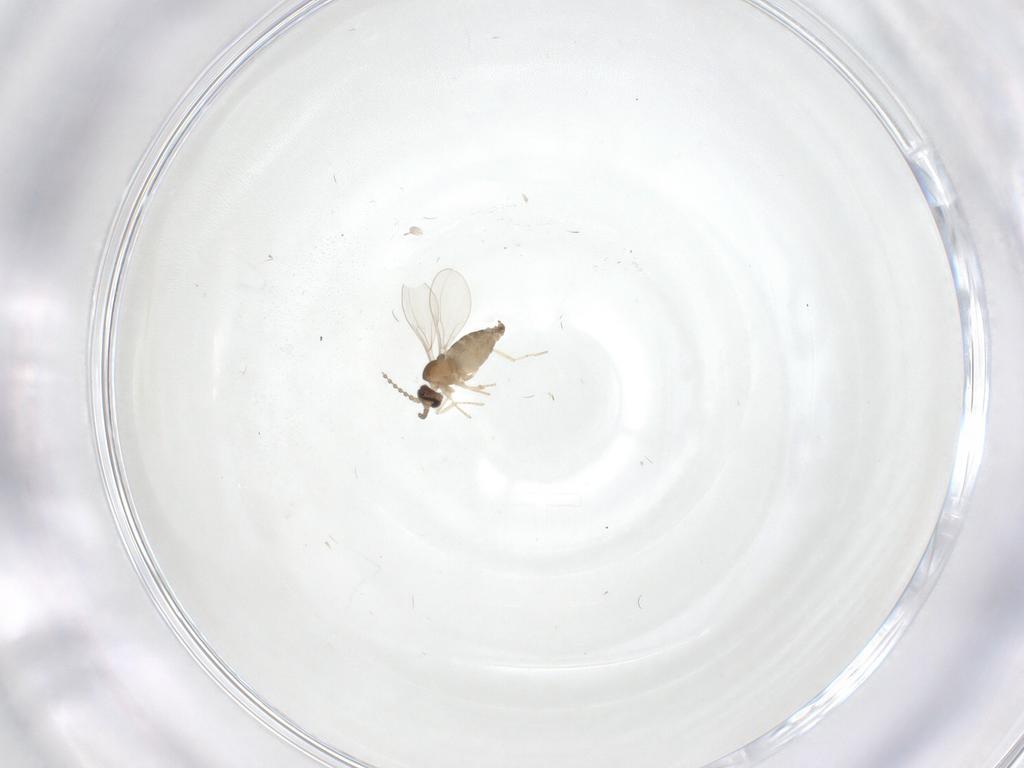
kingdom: Animalia
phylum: Arthropoda
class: Insecta
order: Diptera
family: Cecidomyiidae
